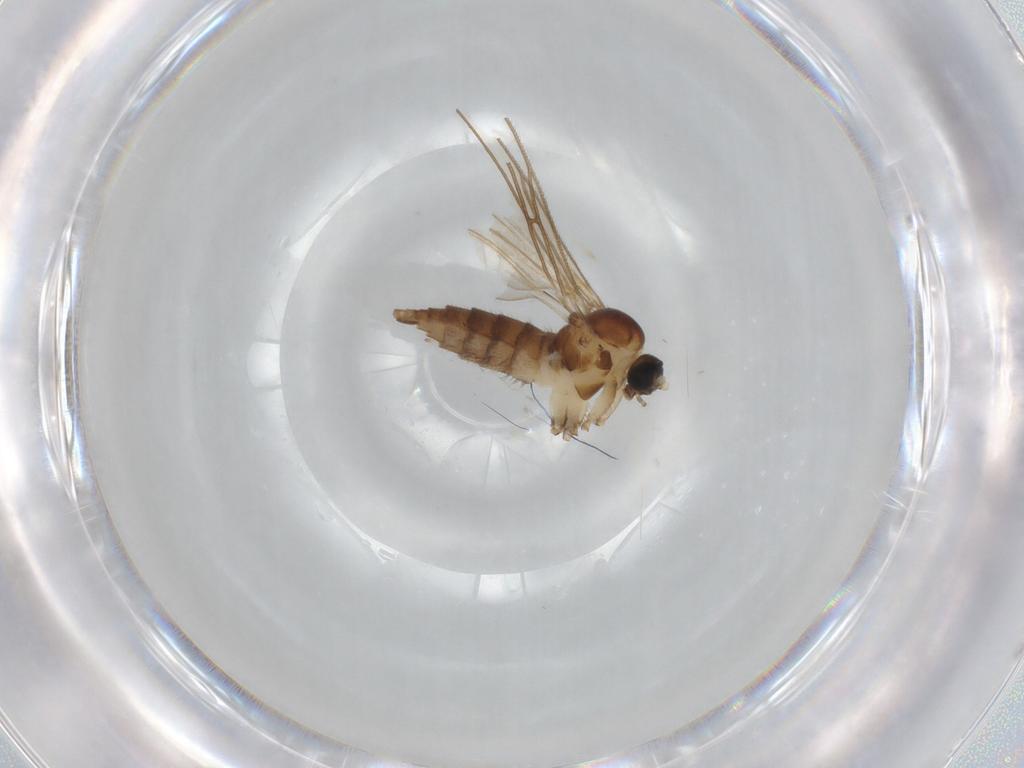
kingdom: Animalia
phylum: Arthropoda
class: Insecta
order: Diptera
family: Sciaridae
